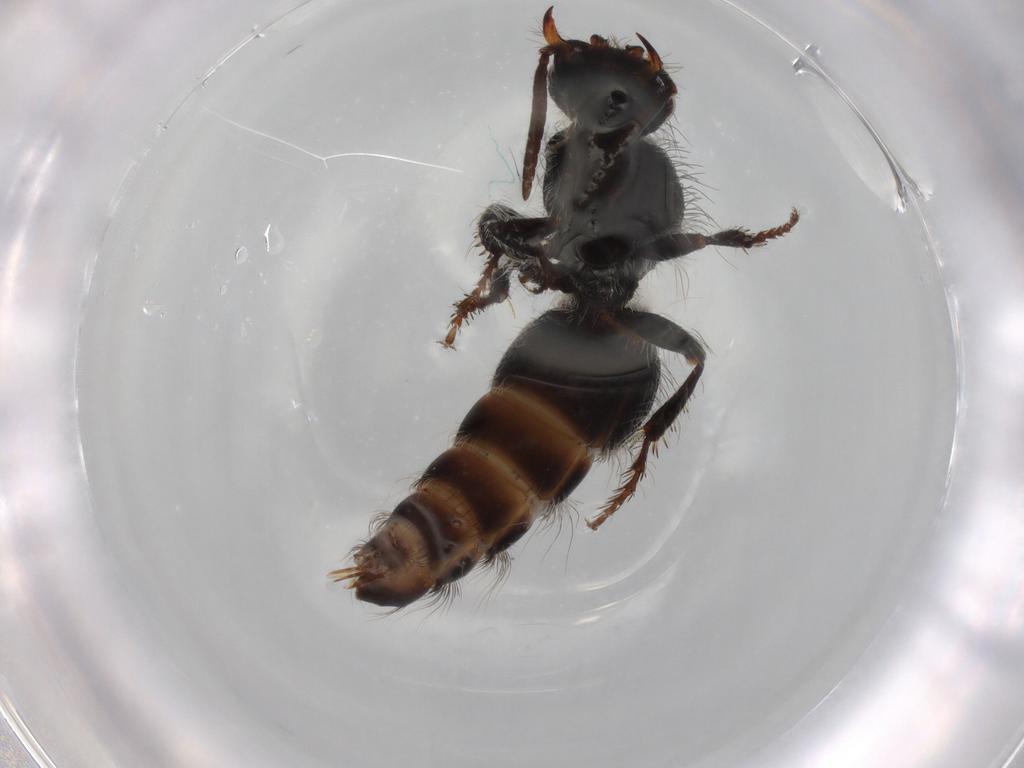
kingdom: Animalia
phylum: Arthropoda
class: Insecta
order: Hymenoptera
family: Mutillidae
